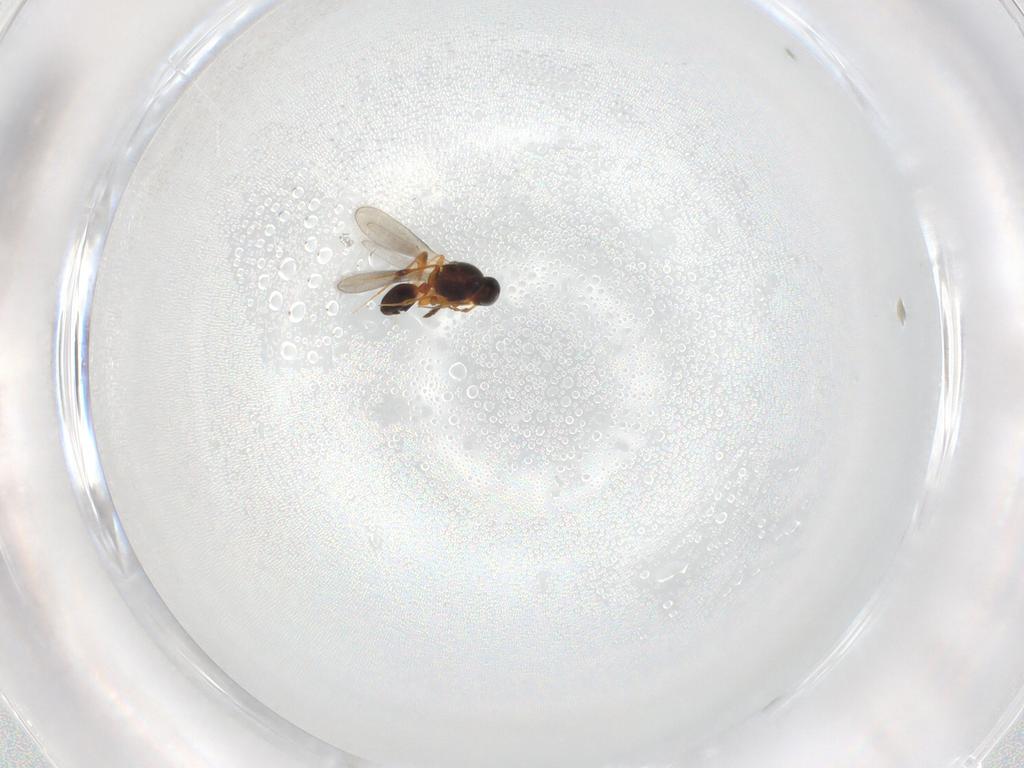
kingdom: Animalia
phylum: Arthropoda
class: Insecta
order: Hymenoptera
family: Platygastridae
